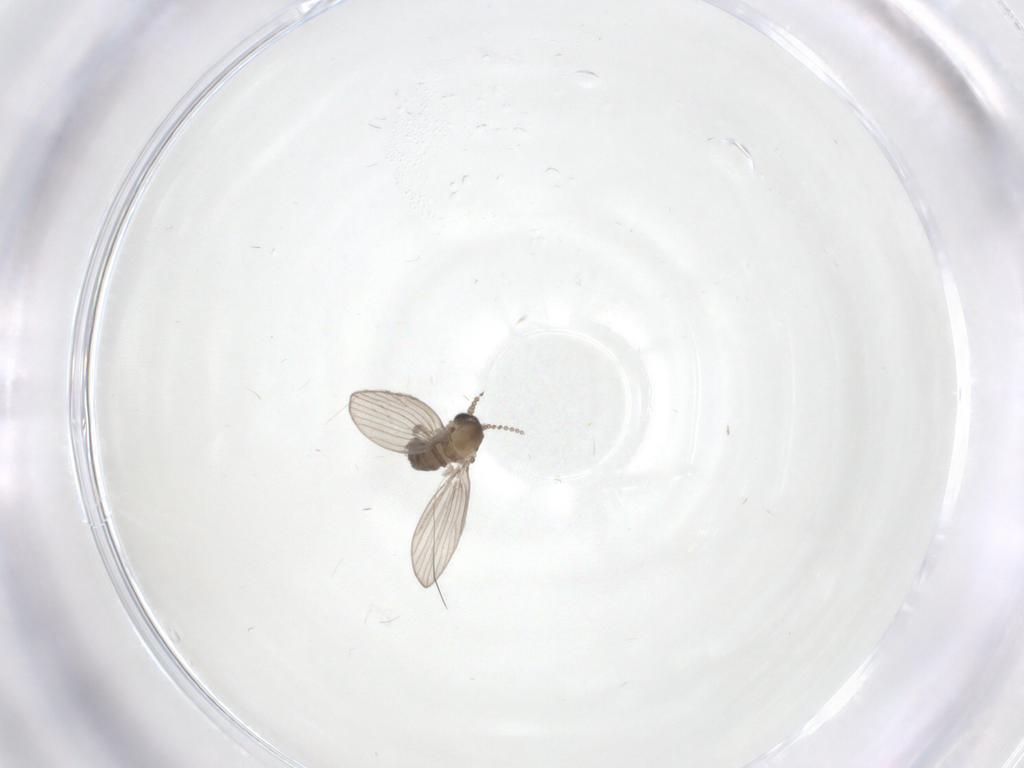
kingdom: Animalia
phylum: Arthropoda
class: Insecta
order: Diptera
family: Psychodidae
